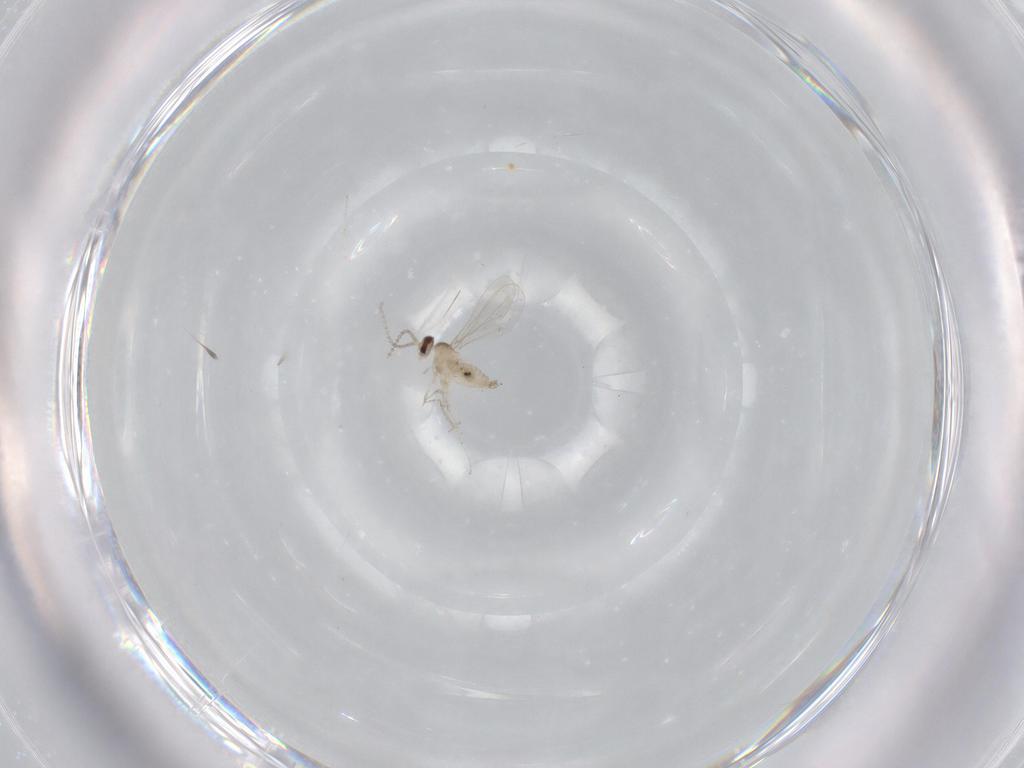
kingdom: Animalia
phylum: Arthropoda
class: Insecta
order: Diptera
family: Cecidomyiidae
